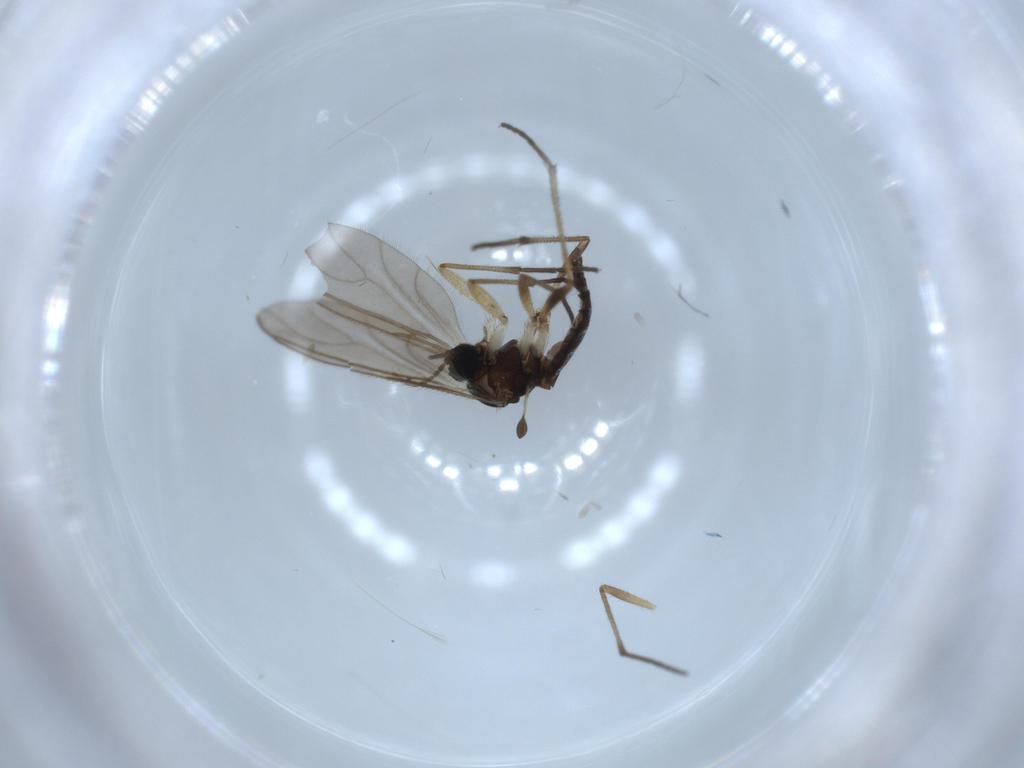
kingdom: Animalia
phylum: Arthropoda
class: Insecta
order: Diptera
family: Sciaridae
